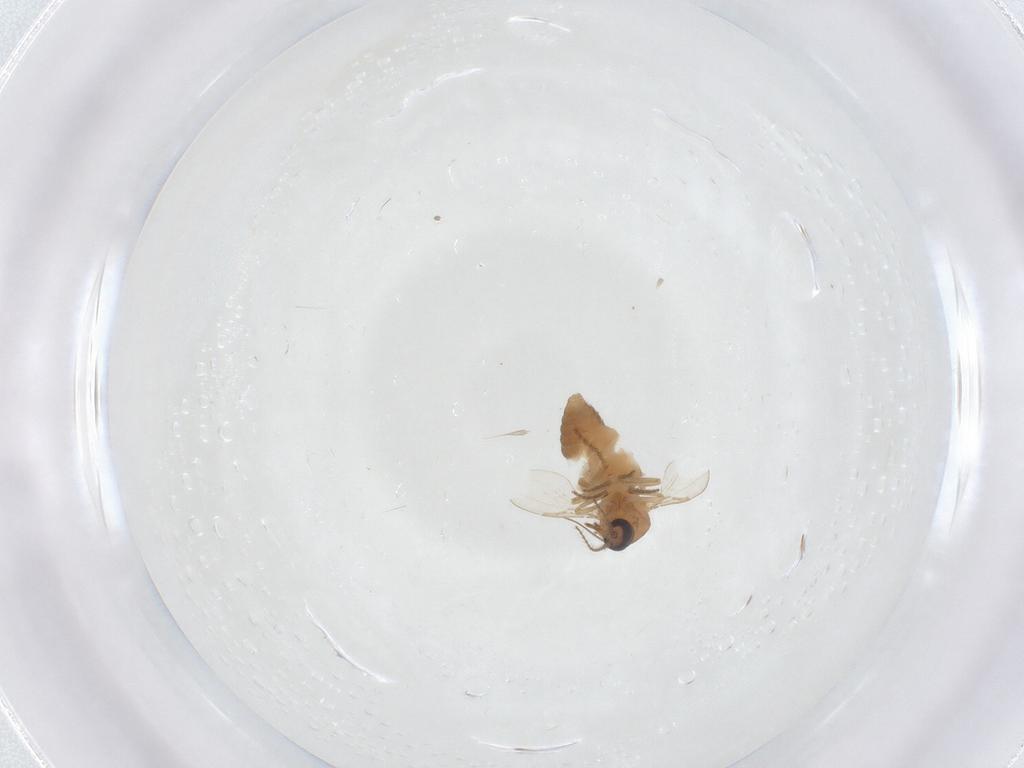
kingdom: Animalia
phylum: Arthropoda
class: Insecta
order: Diptera
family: Ceratopogonidae
